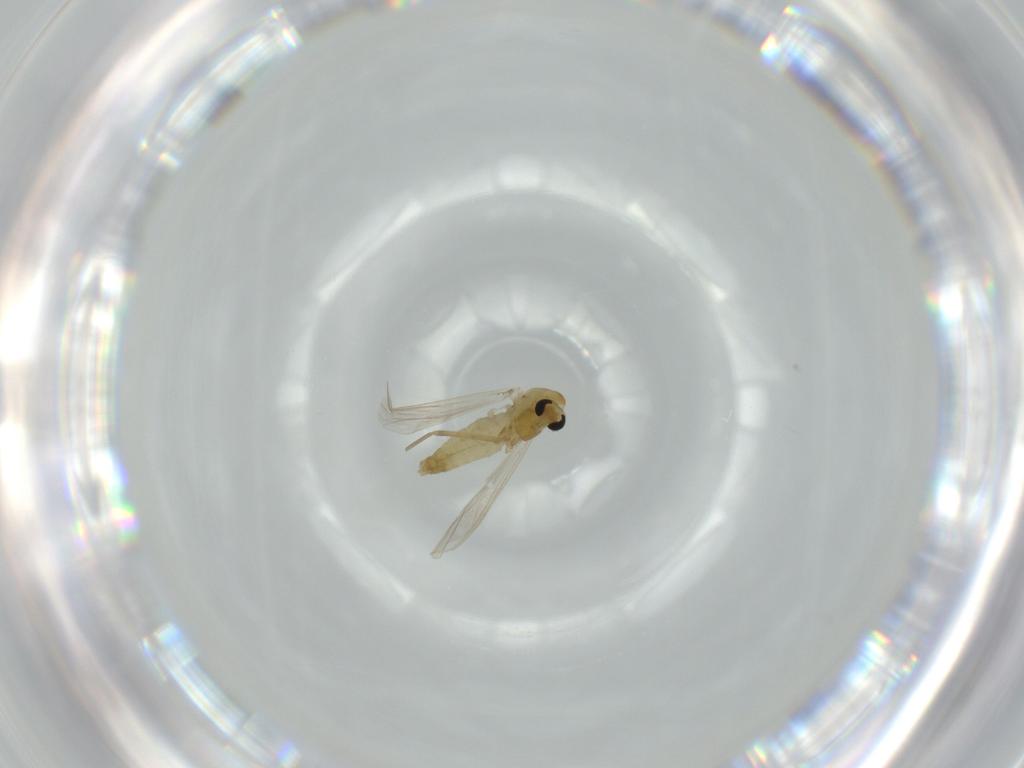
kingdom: Animalia
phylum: Arthropoda
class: Insecta
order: Diptera
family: Chironomidae
